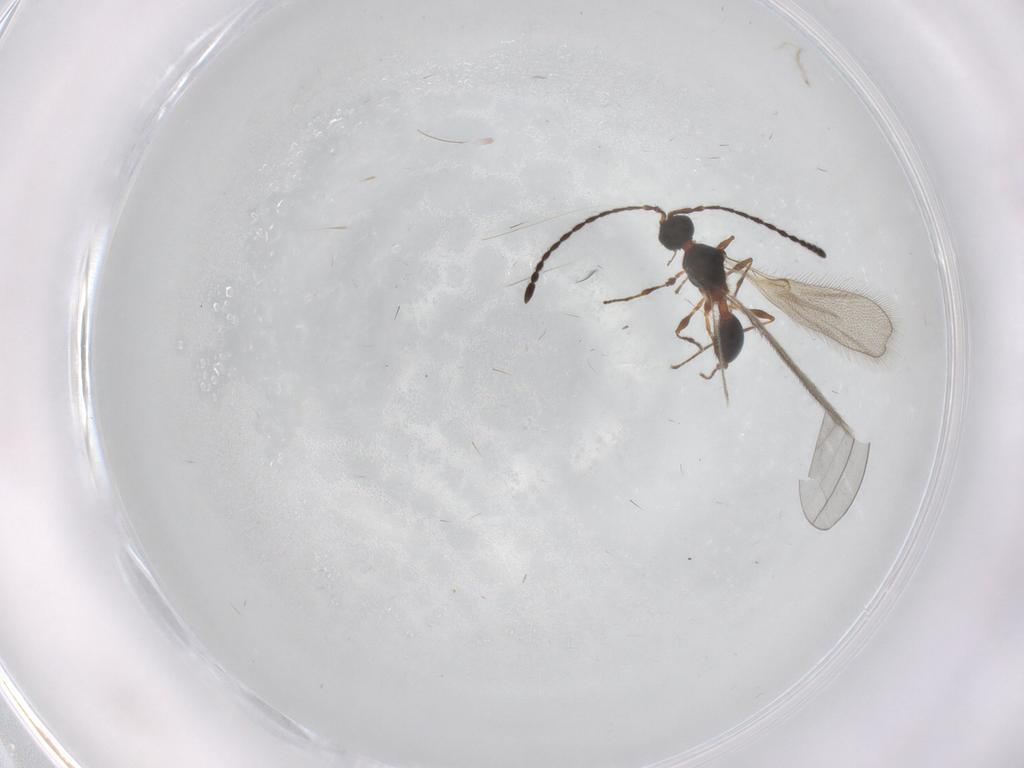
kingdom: Animalia
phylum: Arthropoda
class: Insecta
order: Hymenoptera
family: Diapriidae
